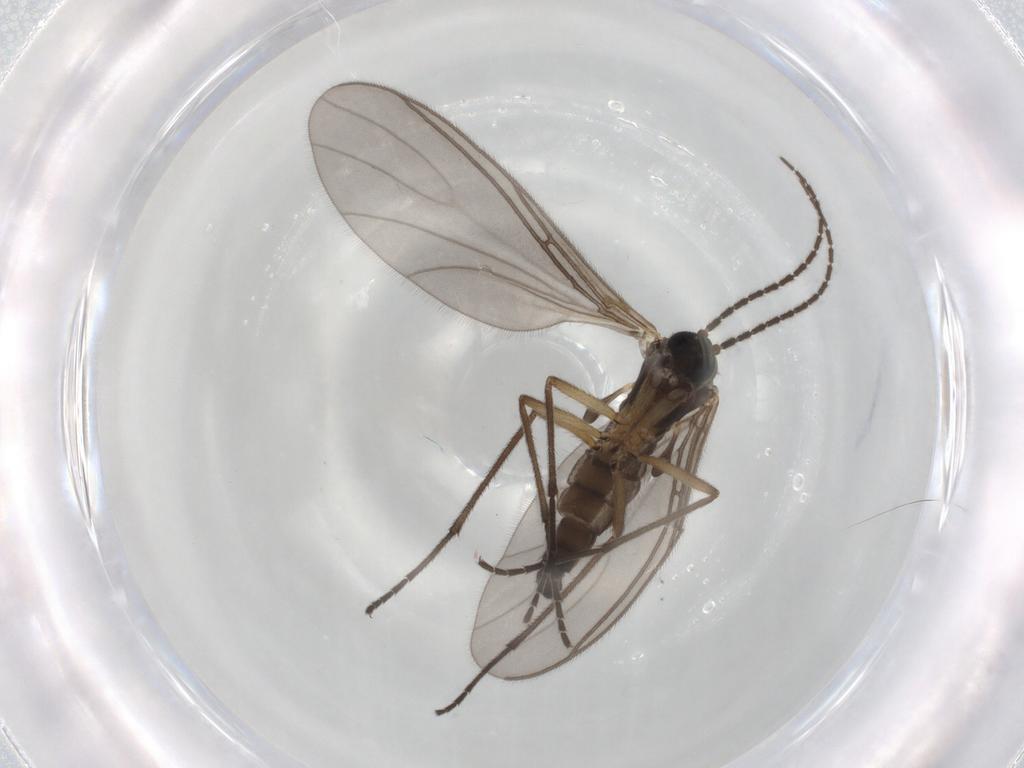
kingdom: Animalia
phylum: Arthropoda
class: Insecta
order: Diptera
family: Sciaridae
